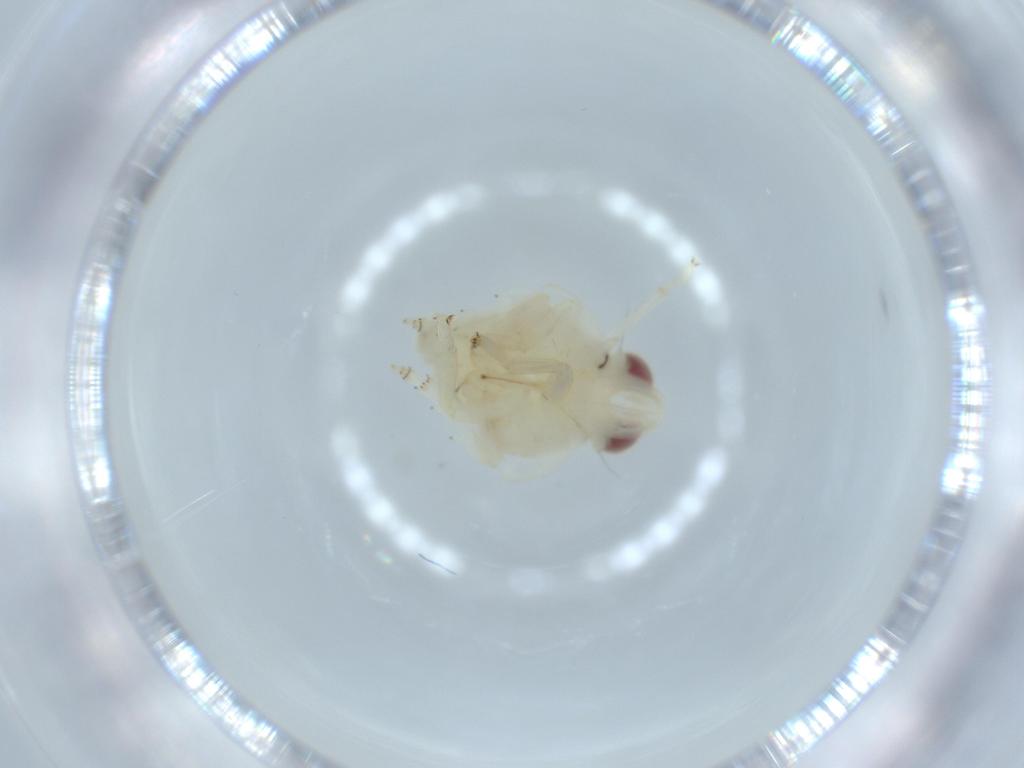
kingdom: Animalia
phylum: Arthropoda
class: Insecta
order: Hemiptera
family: Nogodinidae
